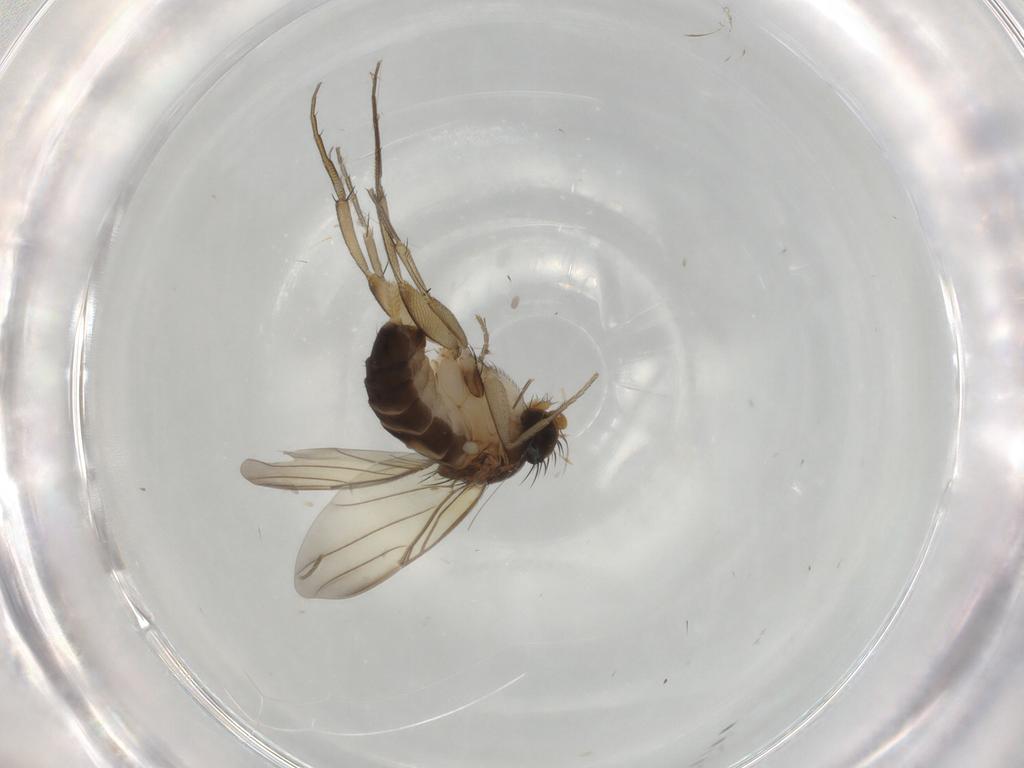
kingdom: Animalia
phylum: Arthropoda
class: Insecta
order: Diptera
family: Phoridae
